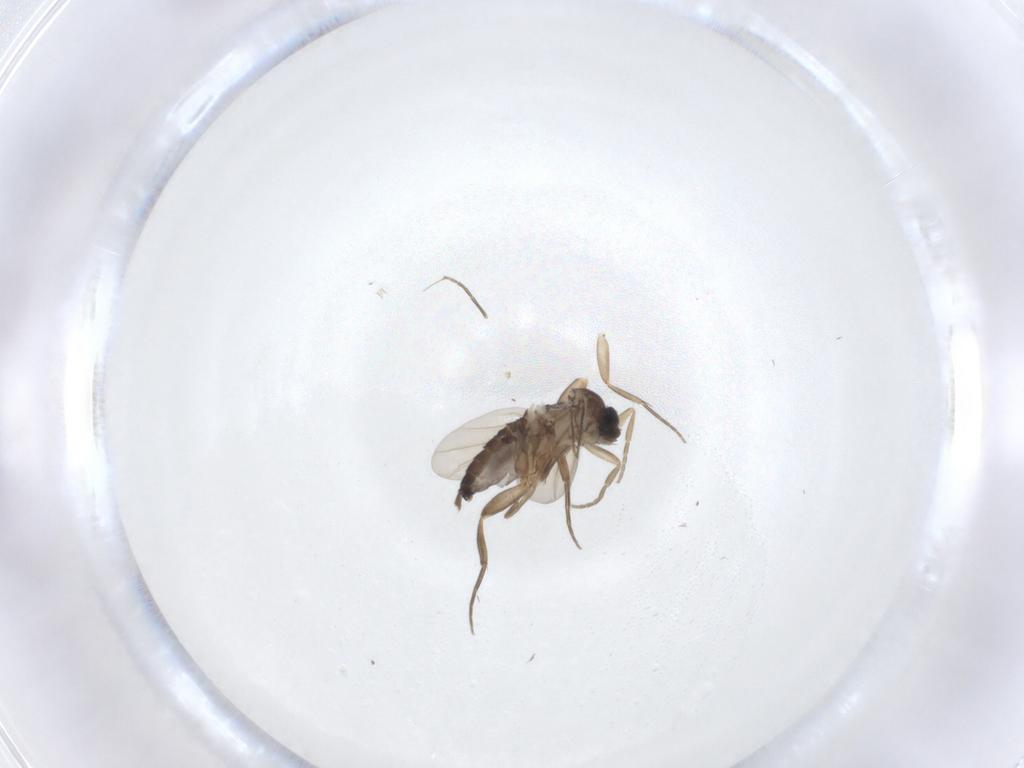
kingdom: Animalia
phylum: Arthropoda
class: Insecta
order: Diptera
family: Phoridae
